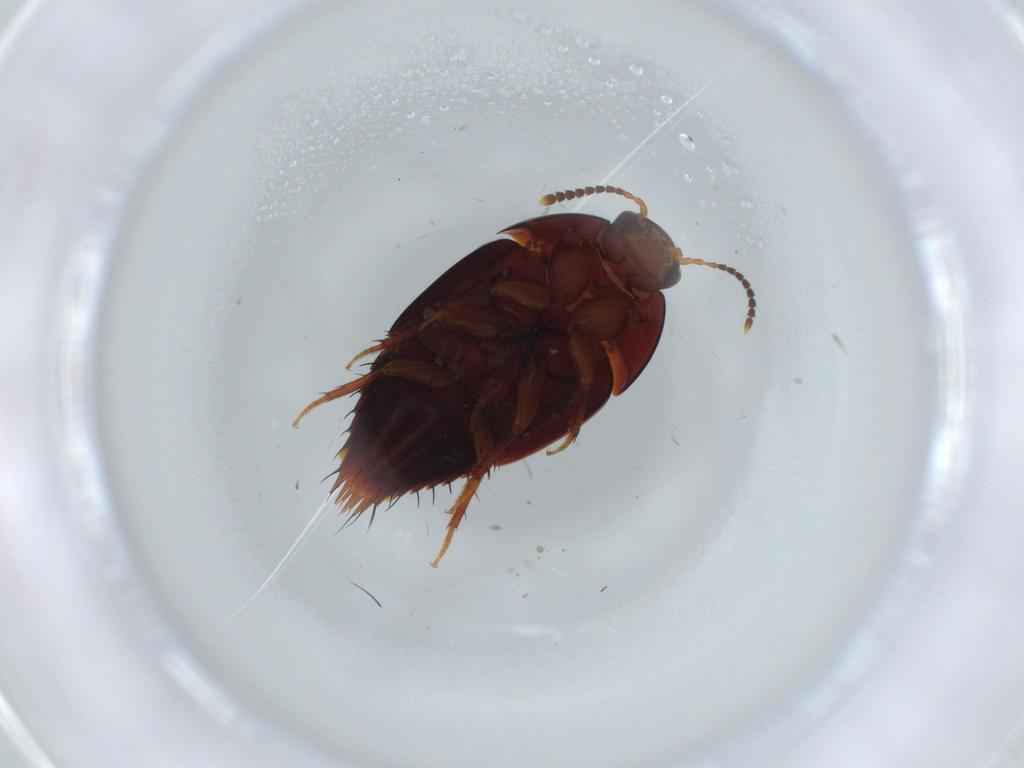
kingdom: Animalia
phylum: Arthropoda
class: Insecta
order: Coleoptera
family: Staphylinidae
